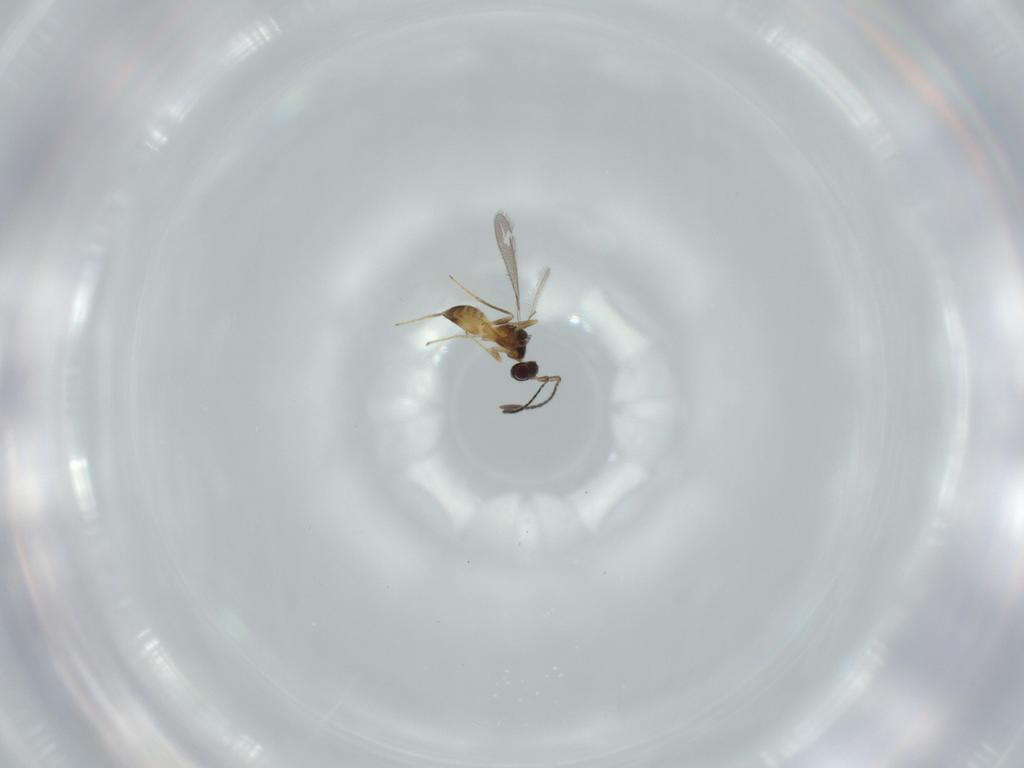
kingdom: Animalia
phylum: Arthropoda
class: Insecta
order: Hymenoptera
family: Mymaridae
